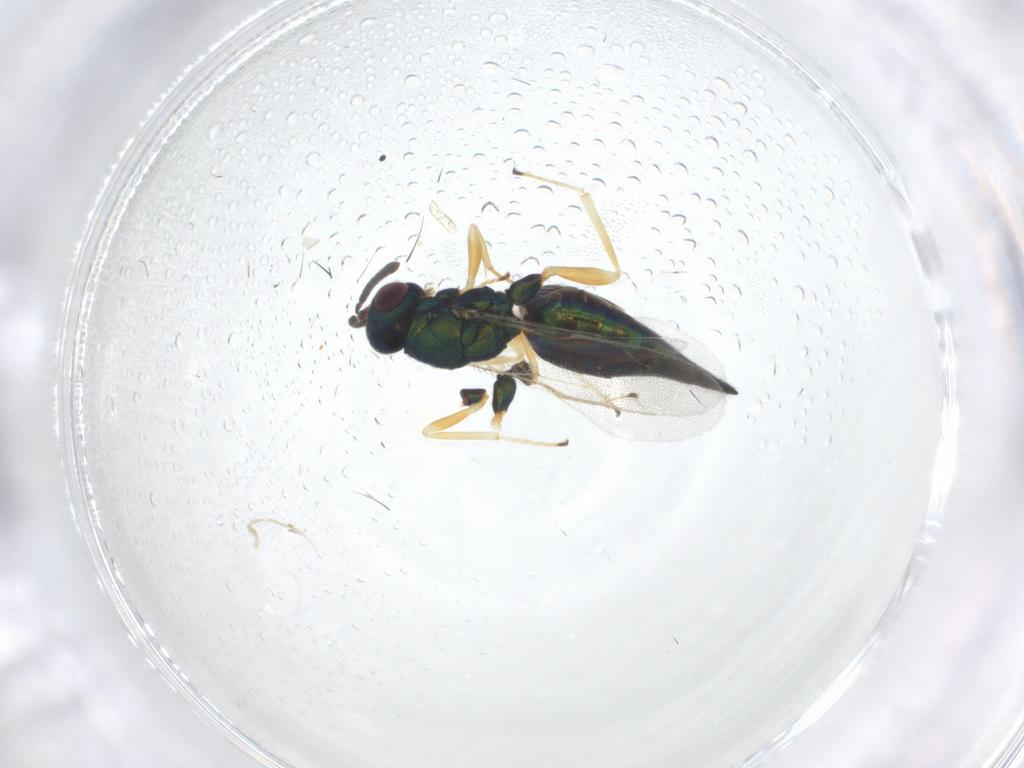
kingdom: Animalia
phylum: Arthropoda
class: Insecta
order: Hymenoptera
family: Pteromalidae
